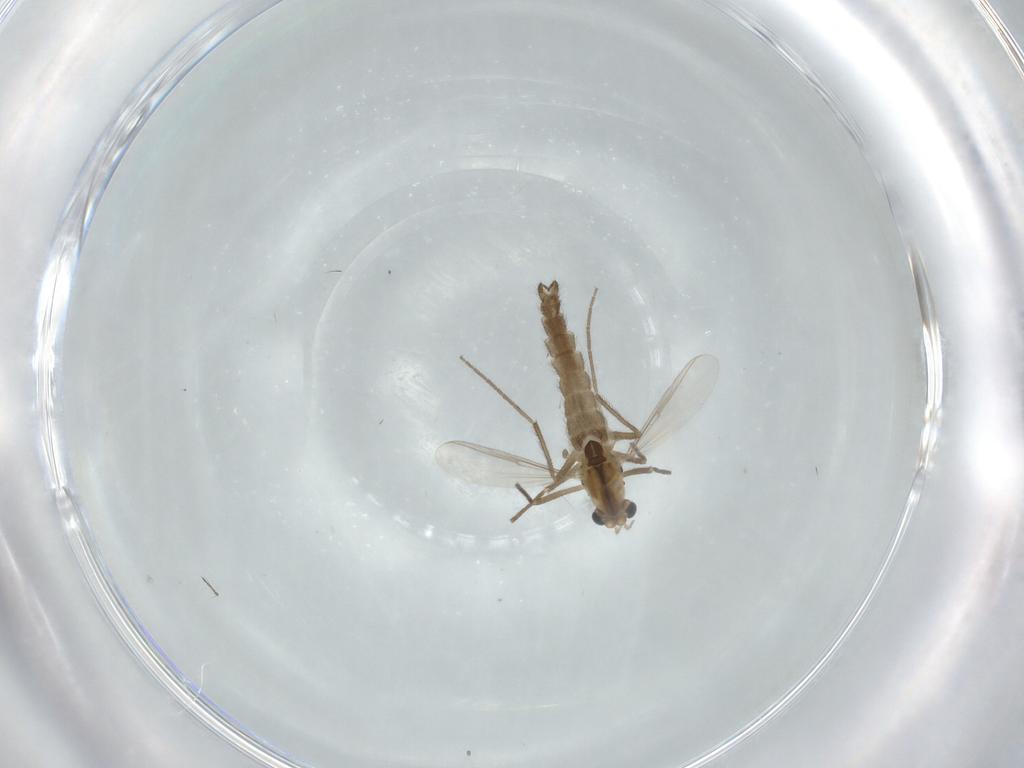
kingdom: Animalia
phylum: Arthropoda
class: Insecta
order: Diptera
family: Chironomidae
